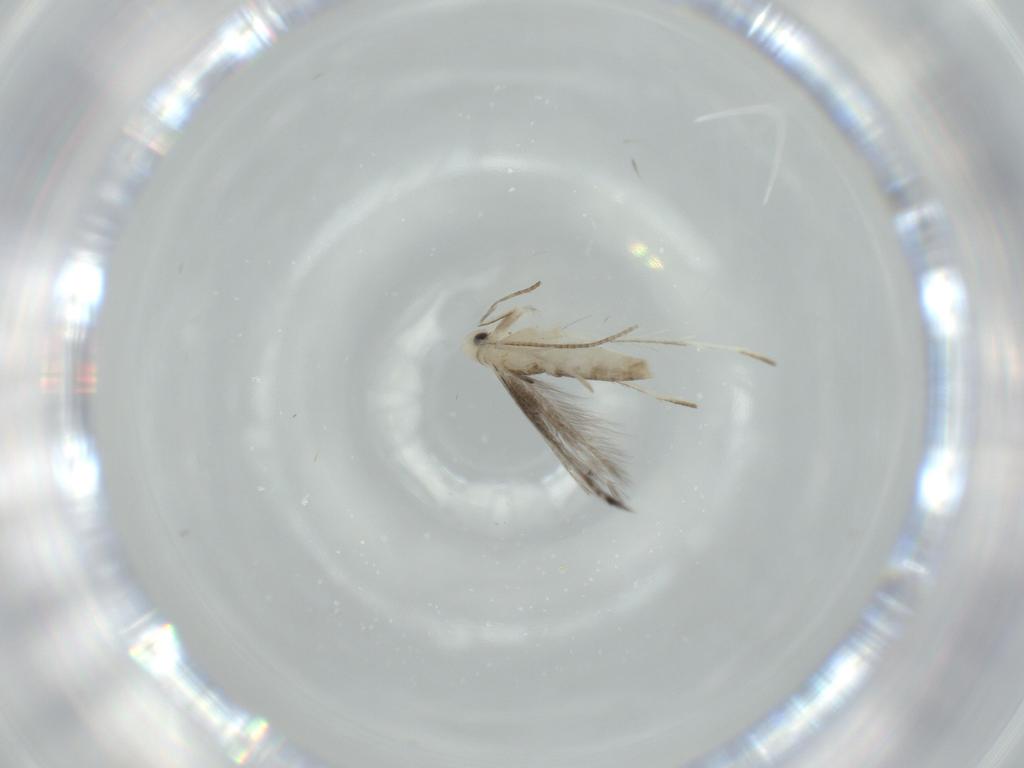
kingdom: Animalia
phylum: Arthropoda
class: Insecta
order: Lepidoptera
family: Gracillariidae
